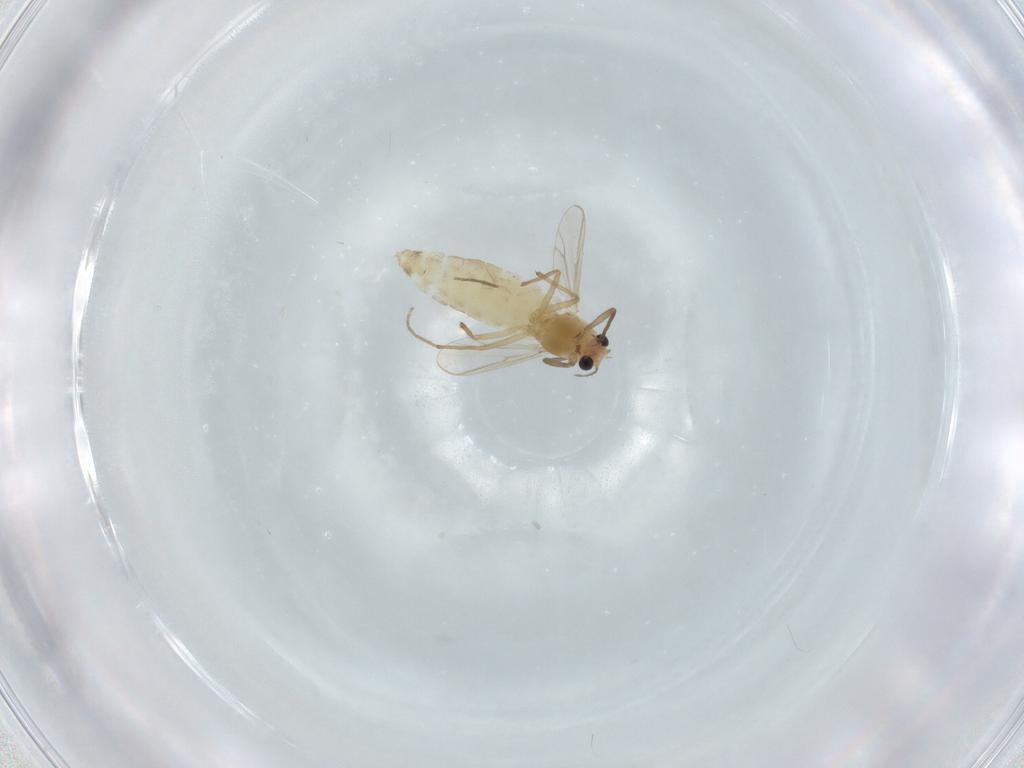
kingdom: Animalia
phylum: Arthropoda
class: Insecta
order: Diptera
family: Chironomidae
